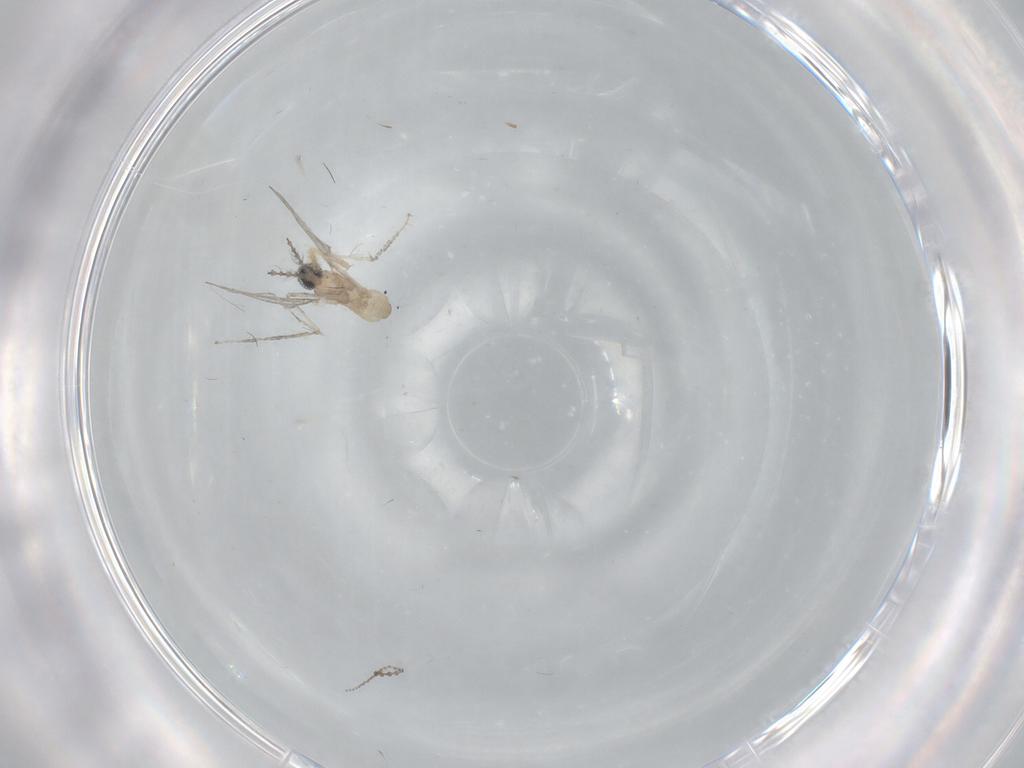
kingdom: Animalia
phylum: Arthropoda
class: Insecta
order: Diptera
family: Cecidomyiidae
